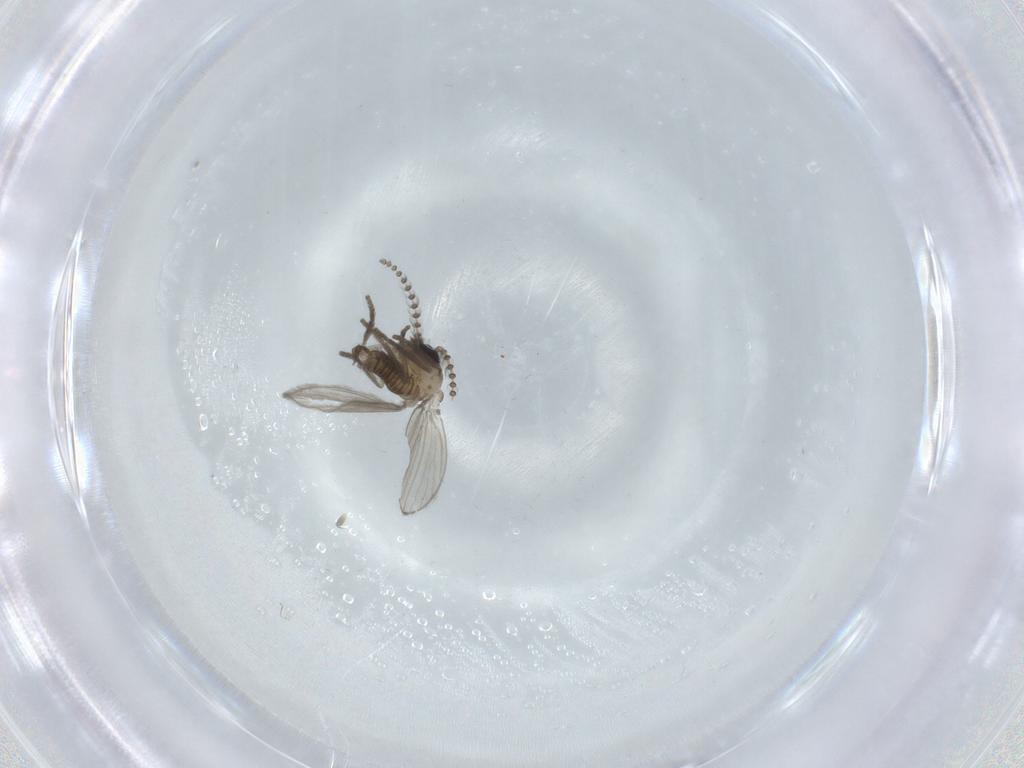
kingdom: Animalia
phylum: Arthropoda
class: Insecta
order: Diptera
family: Psychodidae
